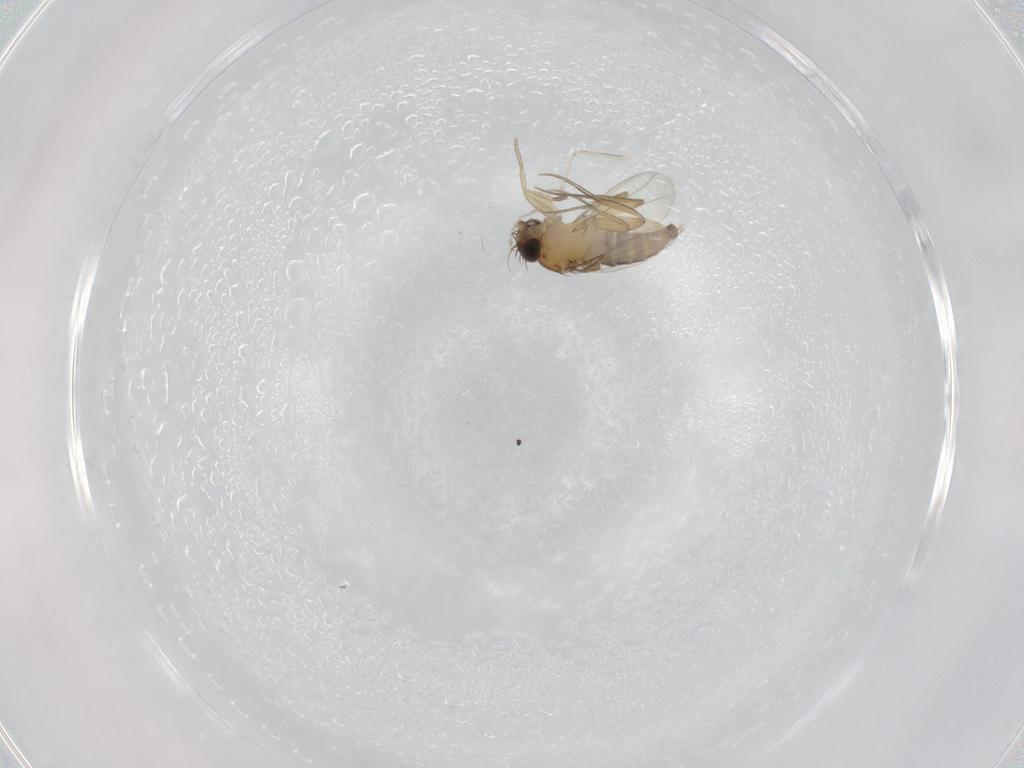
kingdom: Animalia
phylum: Arthropoda
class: Insecta
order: Diptera
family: Phoridae
